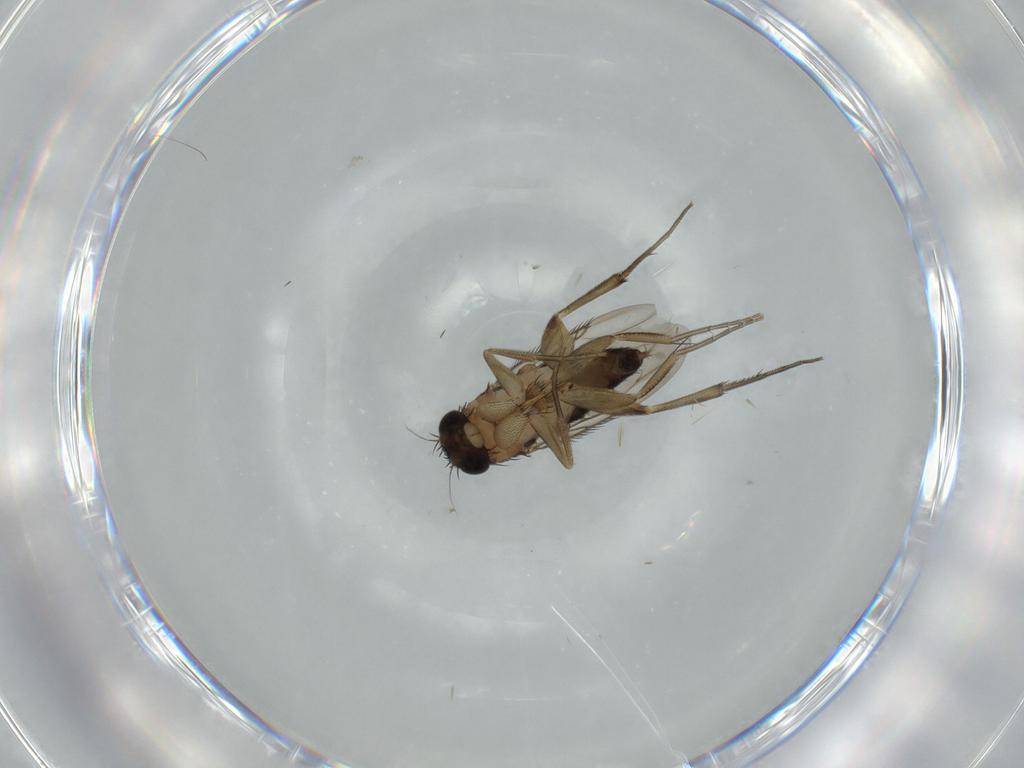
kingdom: Animalia
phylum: Arthropoda
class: Insecta
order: Diptera
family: Phoridae
